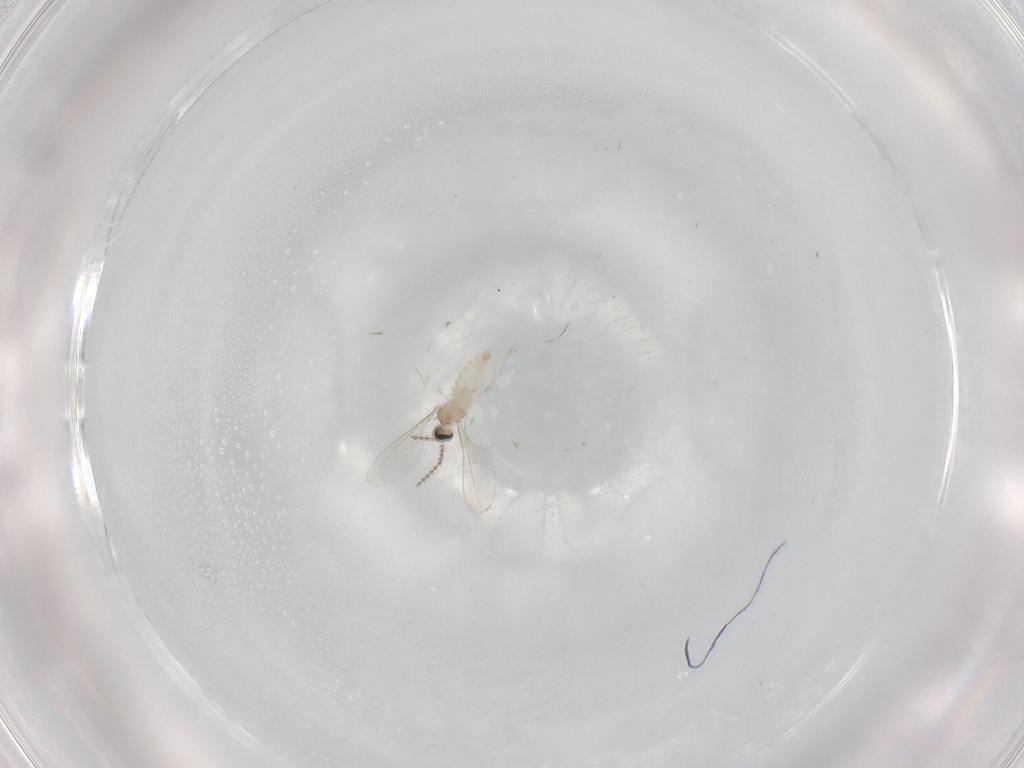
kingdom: Animalia
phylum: Arthropoda
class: Insecta
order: Diptera
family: Cecidomyiidae
